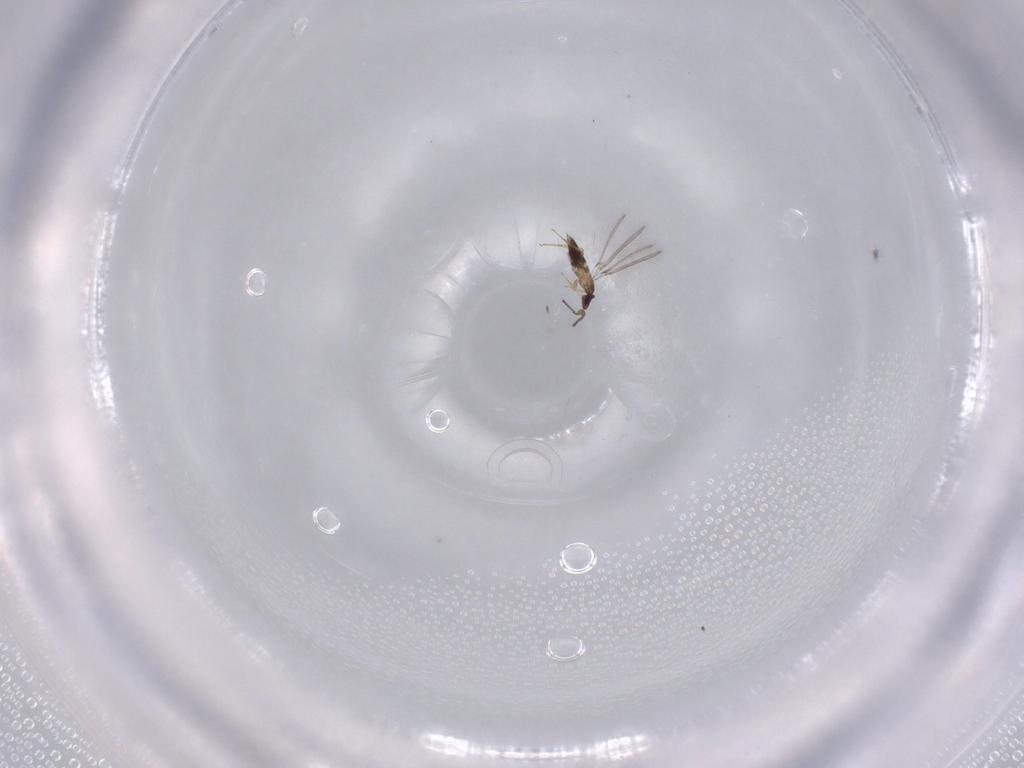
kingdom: Animalia
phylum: Arthropoda
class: Insecta
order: Hymenoptera
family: Mymaridae
